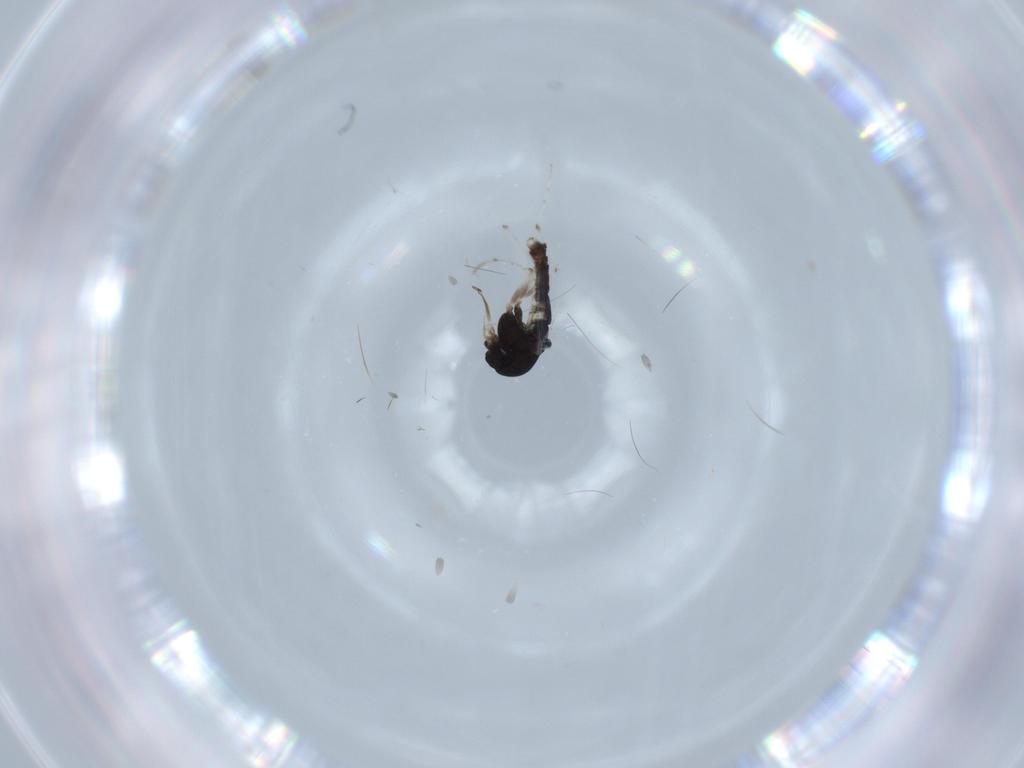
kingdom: Animalia
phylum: Arthropoda
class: Insecta
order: Diptera
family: Chironomidae
